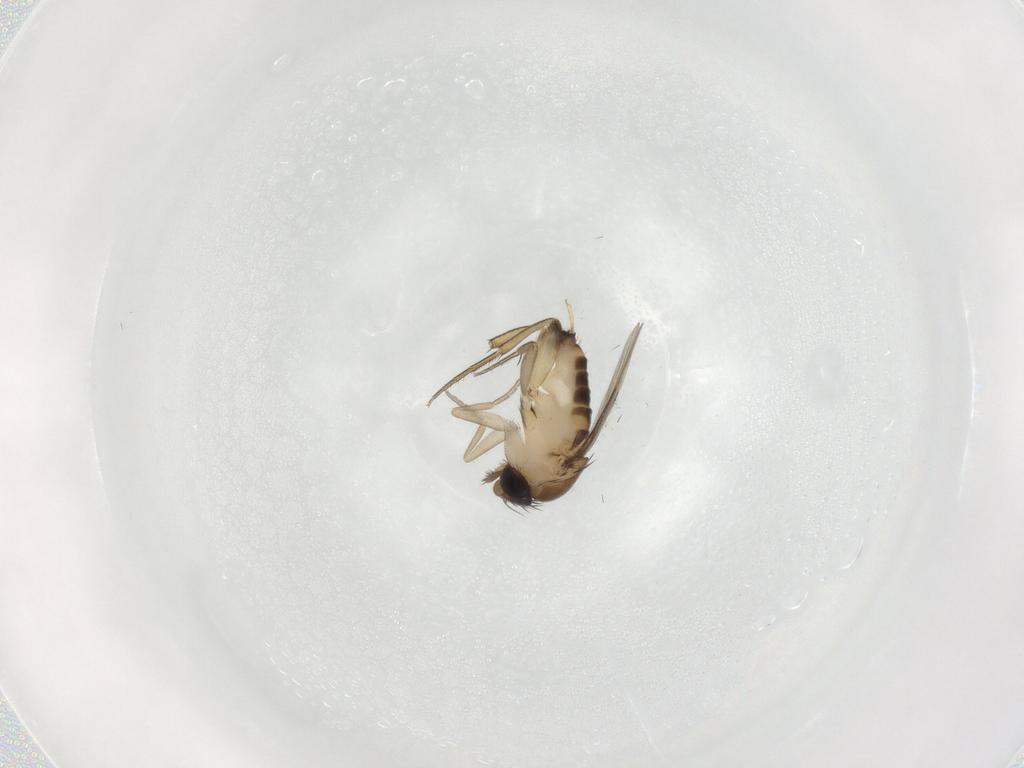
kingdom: Animalia
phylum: Arthropoda
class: Insecta
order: Diptera
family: Phoridae
